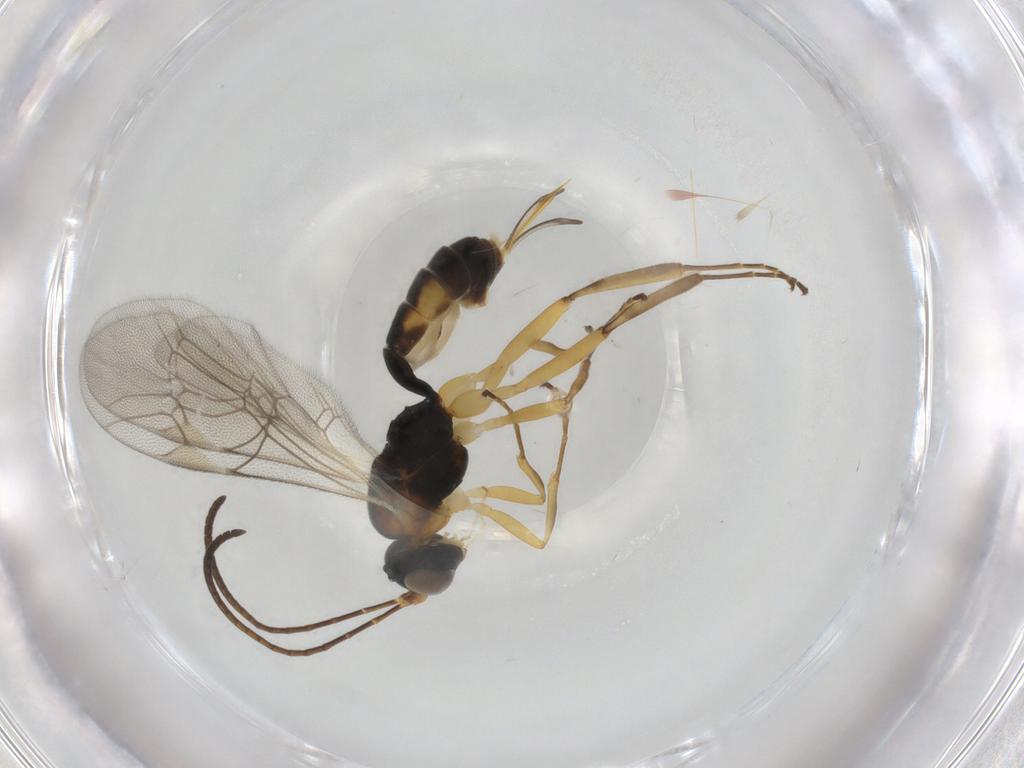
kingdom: Animalia
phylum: Arthropoda
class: Insecta
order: Hymenoptera
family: Ichneumonidae
